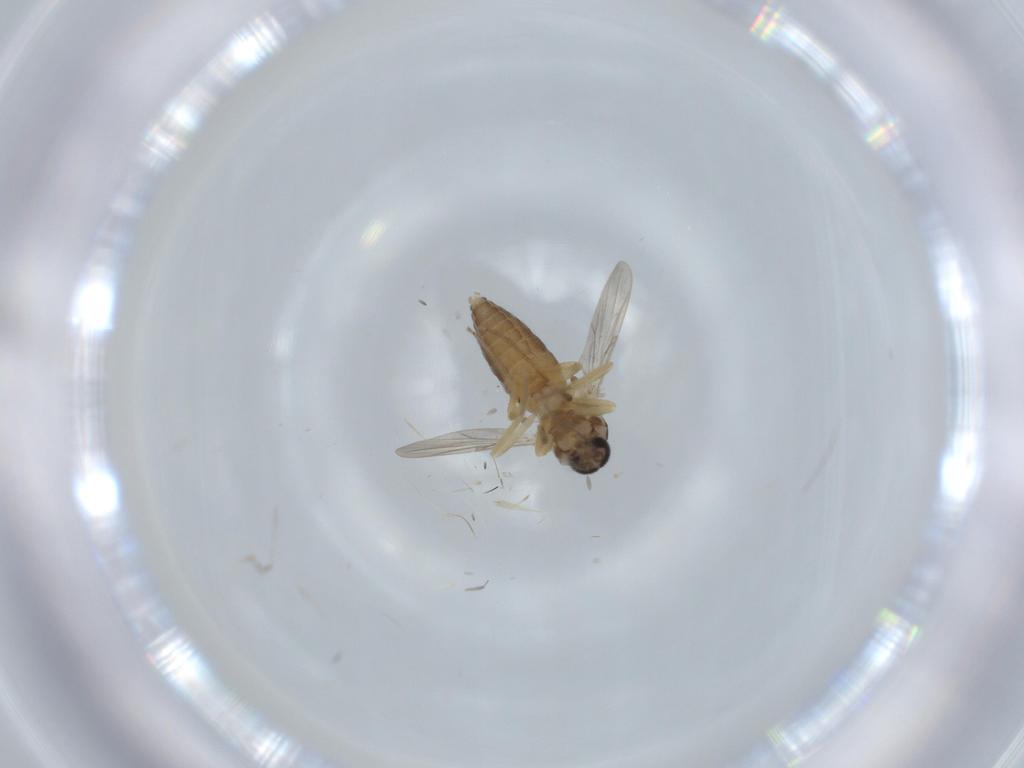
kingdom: Animalia
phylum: Arthropoda
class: Insecta
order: Diptera
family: Ceratopogonidae
